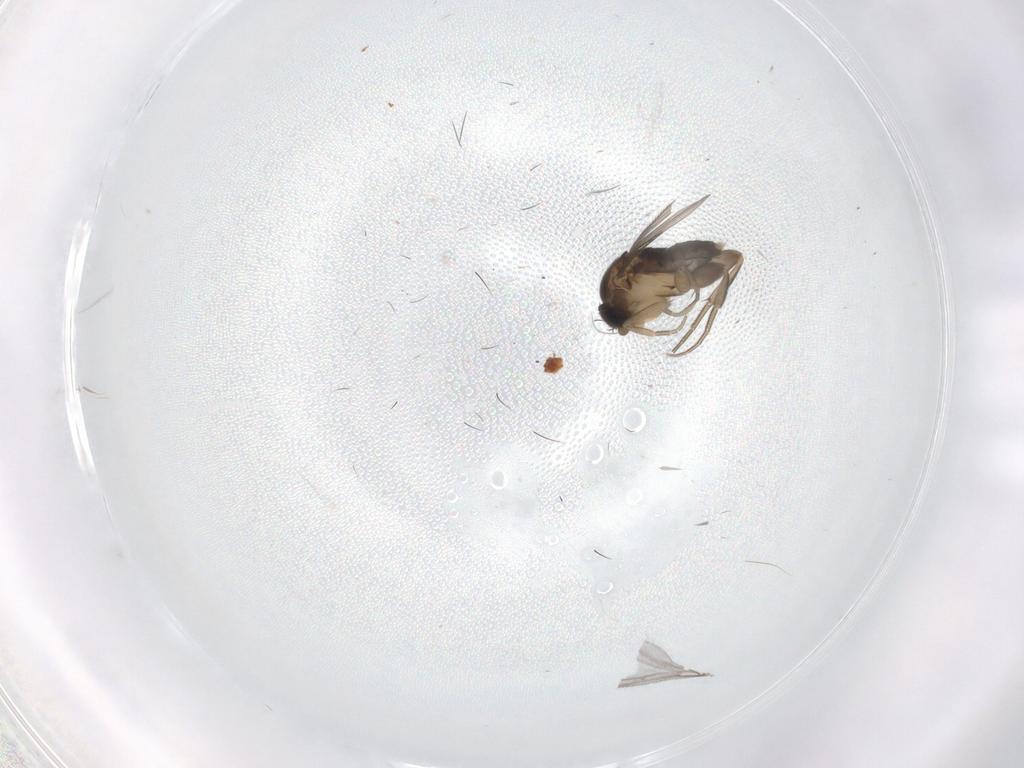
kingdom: Animalia
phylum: Arthropoda
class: Insecta
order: Diptera
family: Phoridae
